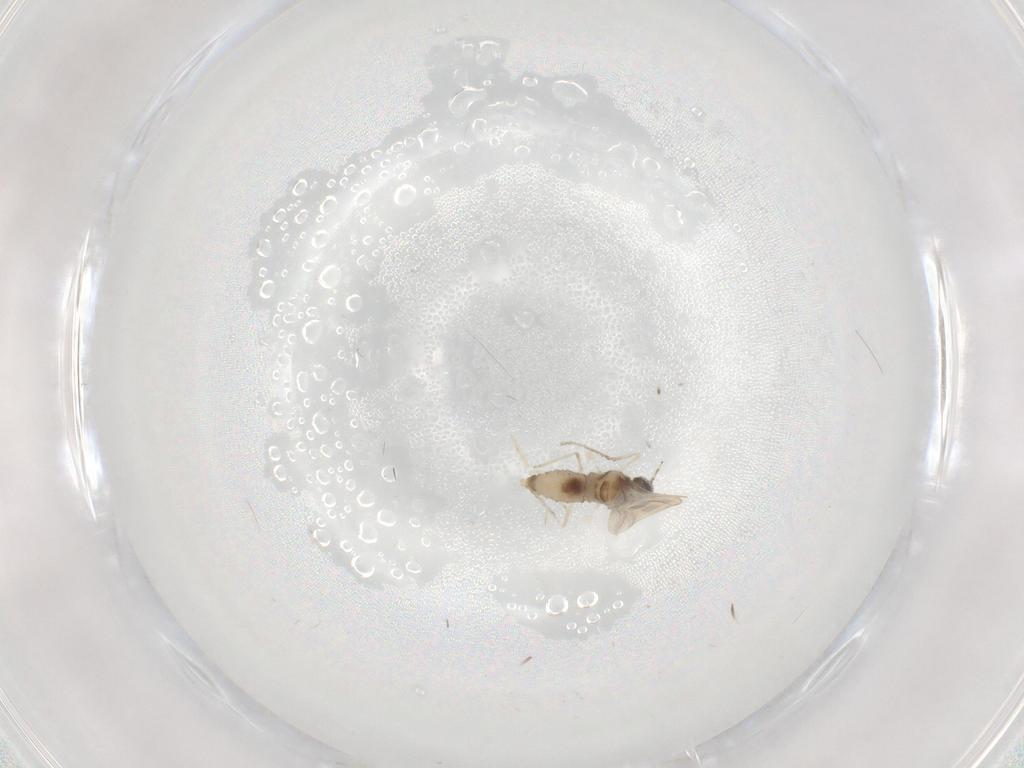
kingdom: Animalia
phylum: Arthropoda
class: Insecta
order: Diptera
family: Cecidomyiidae
